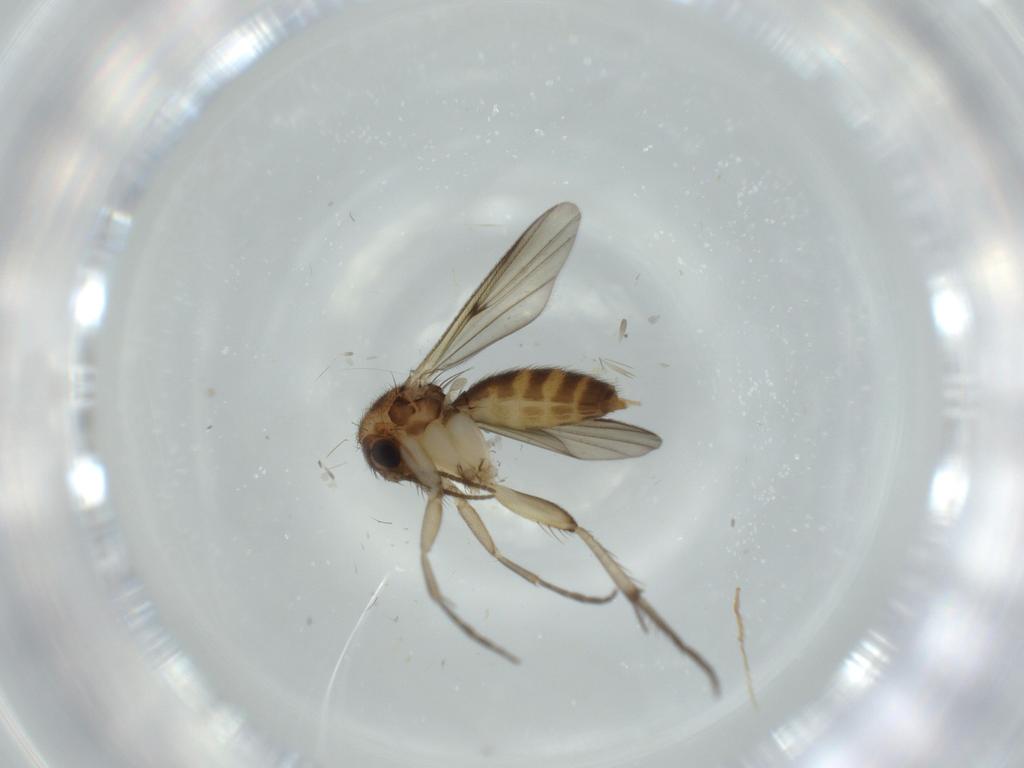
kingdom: Animalia
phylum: Arthropoda
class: Insecta
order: Diptera
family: Mycetophilidae
